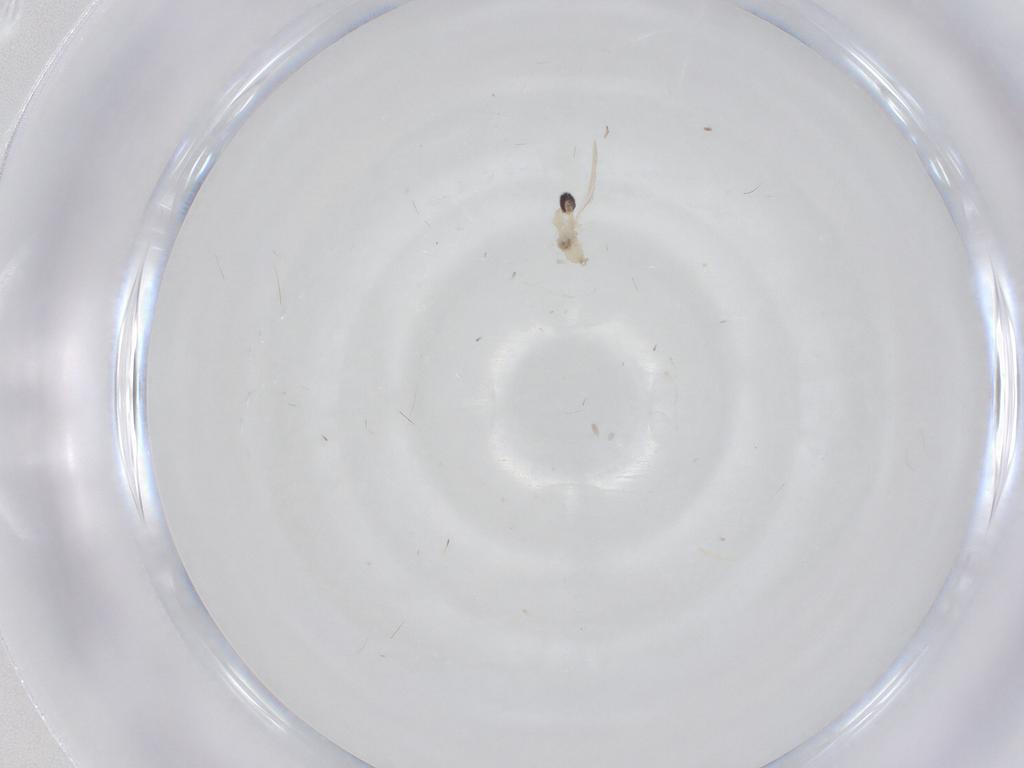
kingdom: Animalia
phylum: Arthropoda
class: Insecta
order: Diptera
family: Cecidomyiidae
